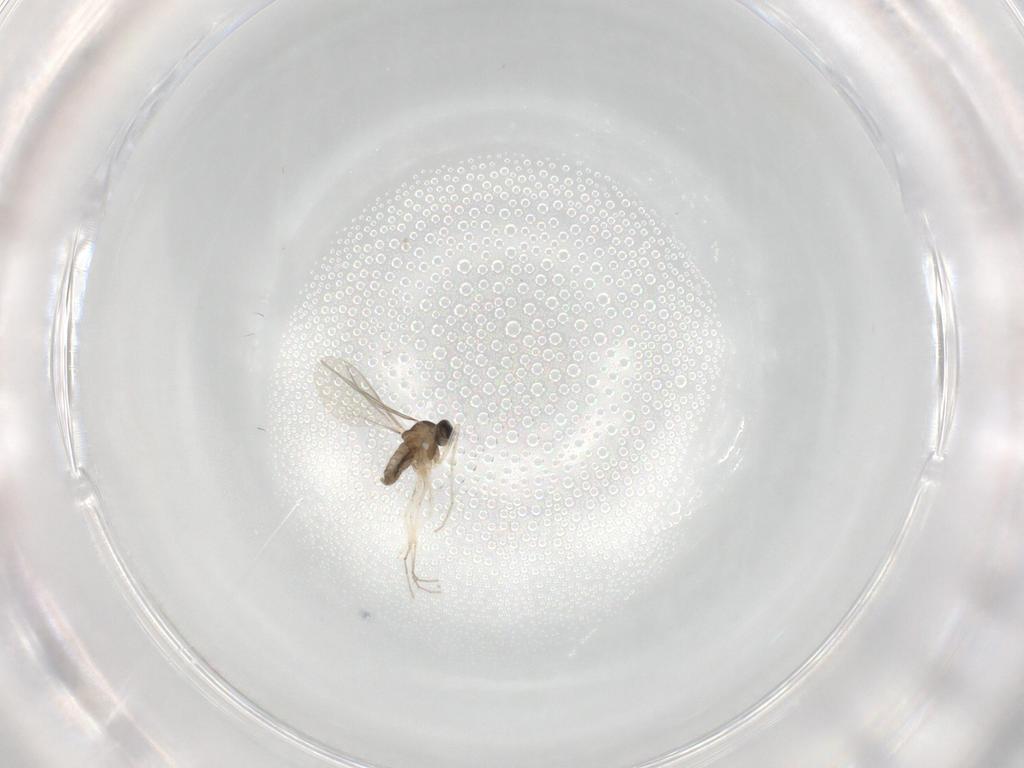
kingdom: Animalia
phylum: Arthropoda
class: Insecta
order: Diptera
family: Cecidomyiidae
